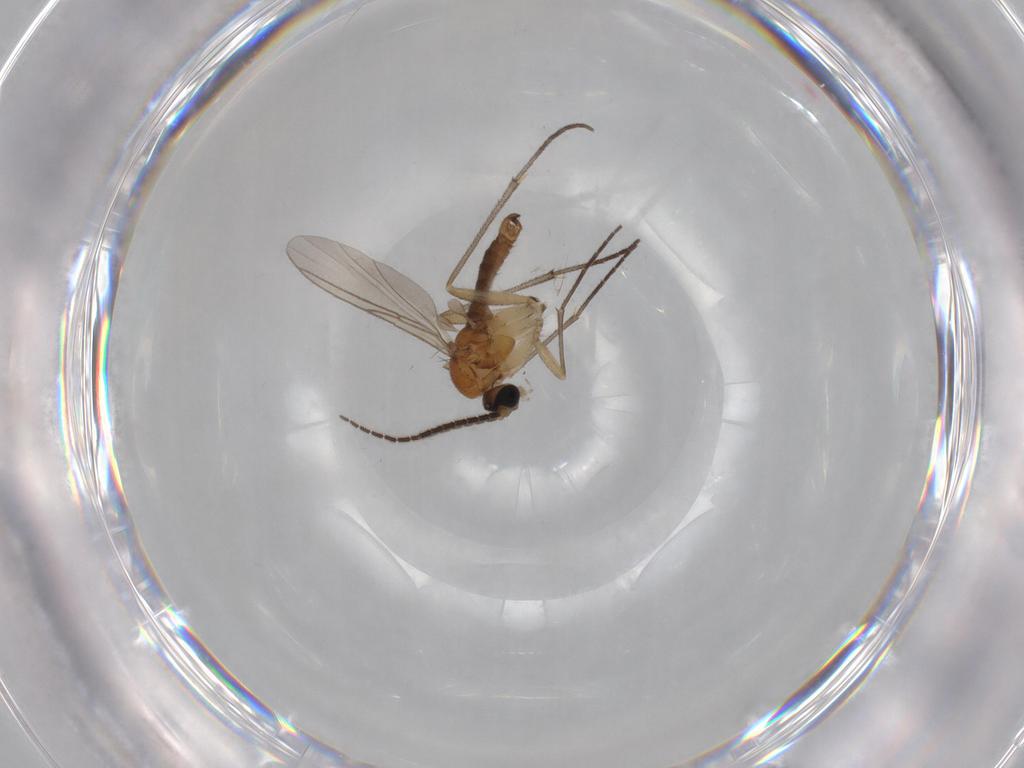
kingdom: Animalia
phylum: Arthropoda
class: Insecta
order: Diptera
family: Sciaridae
